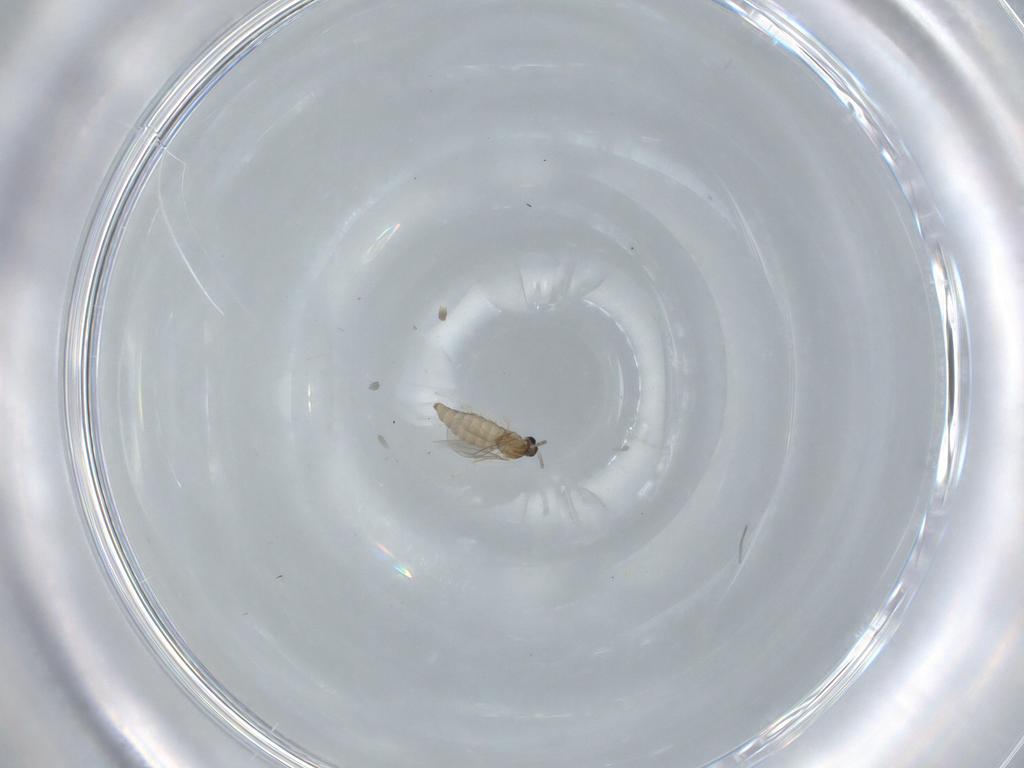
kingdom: Animalia
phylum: Arthropoda
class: Insecta
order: Diptera
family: Cecidomyiidae
